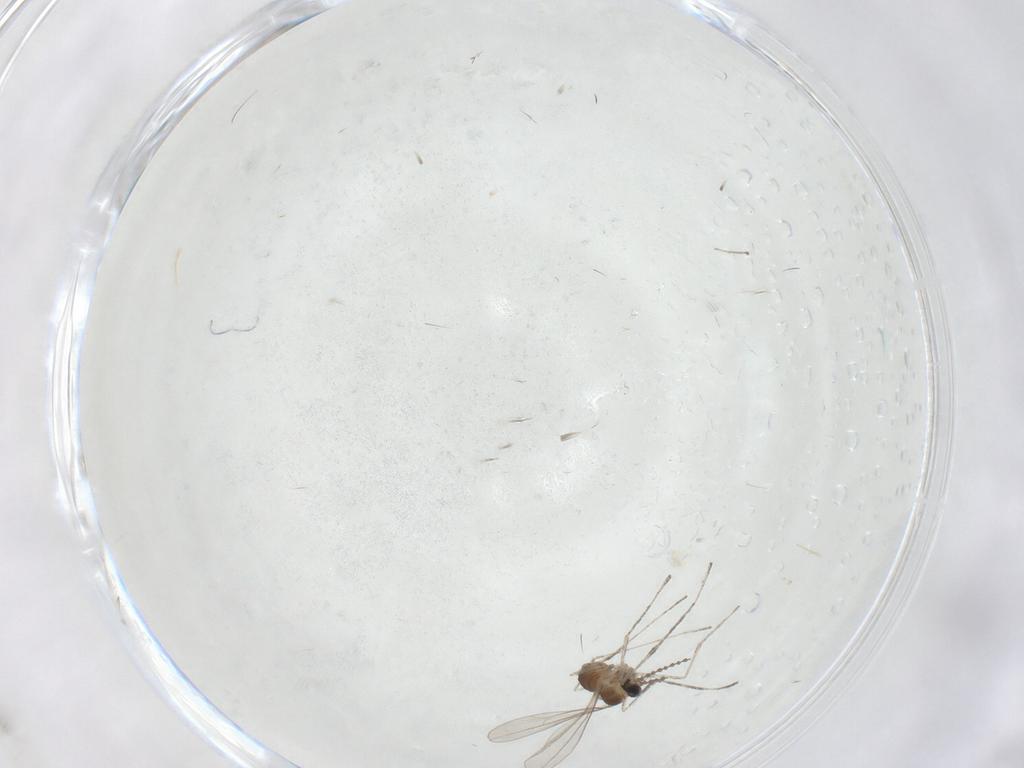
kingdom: Animalia
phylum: Arthropoda
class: Insecta
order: Diptera
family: Cecidomyiidae
